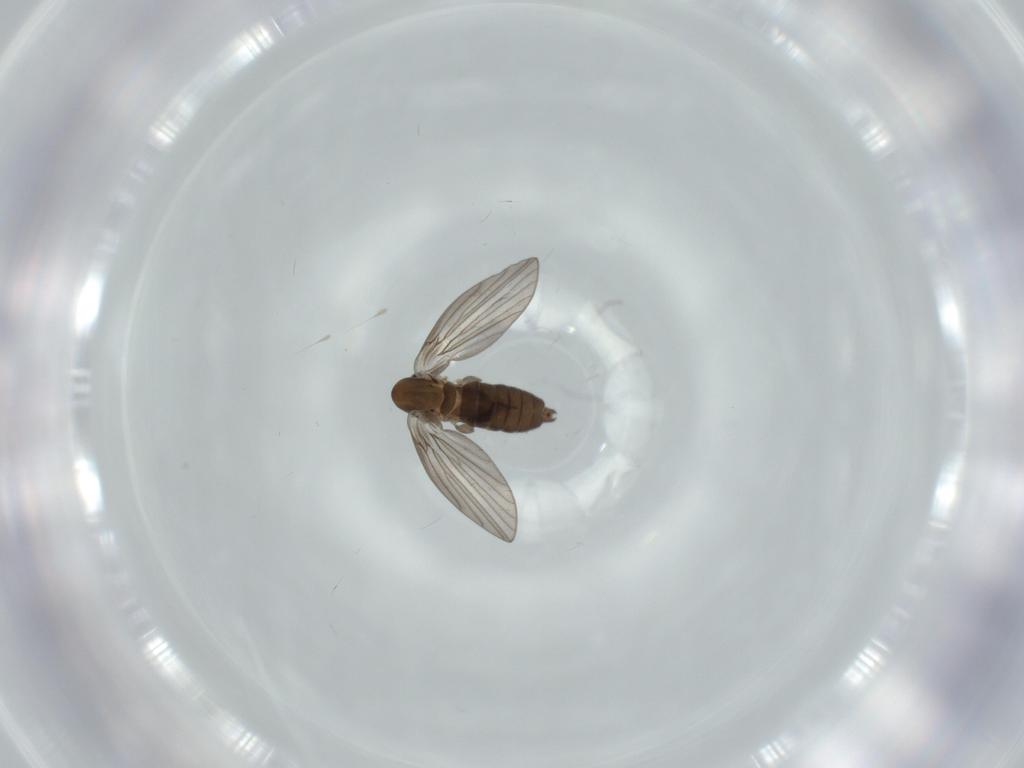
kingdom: Animalia
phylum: Arthropoda
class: Insecta
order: Diptera
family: Psychodidae
